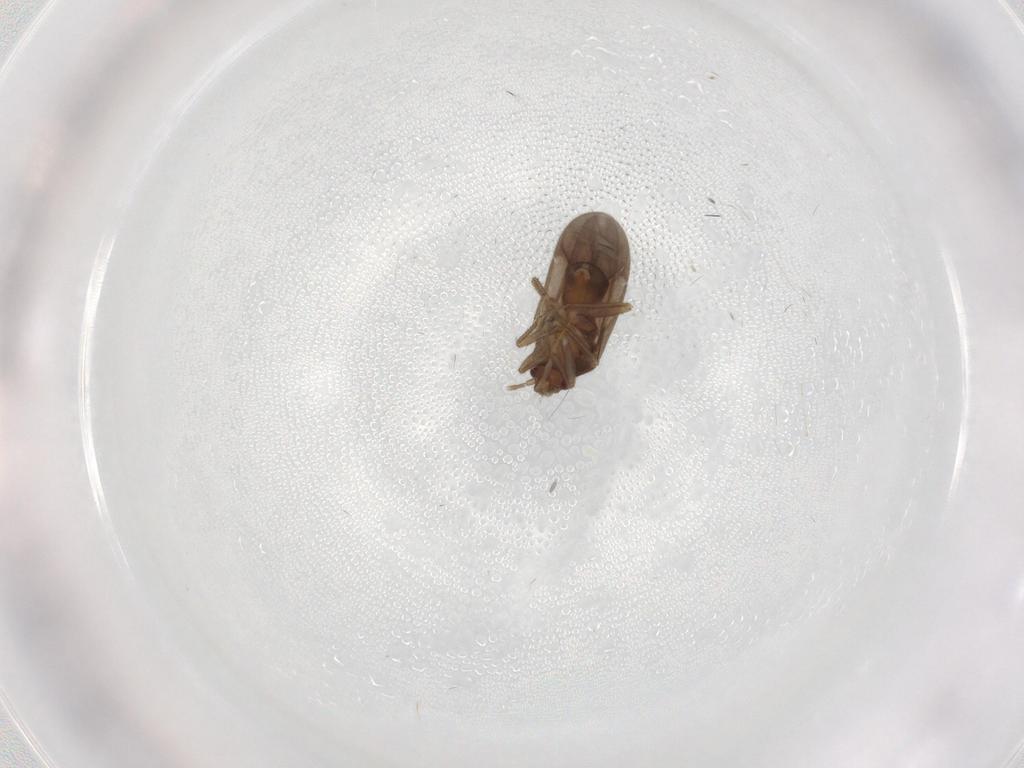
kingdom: Animalia
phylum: Arthropoda
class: Insecta
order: Hemiptera
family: Ceratocombidae
